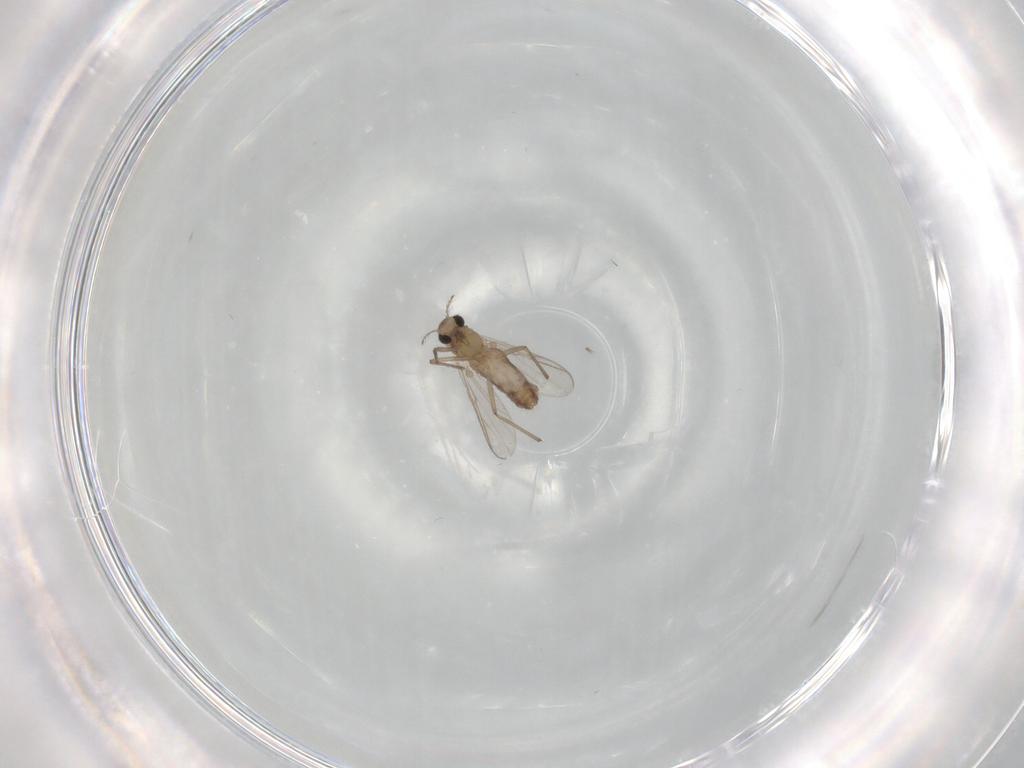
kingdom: Animalia
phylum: Arthropoda
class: Insecta
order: Diptera
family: Chironomidae
